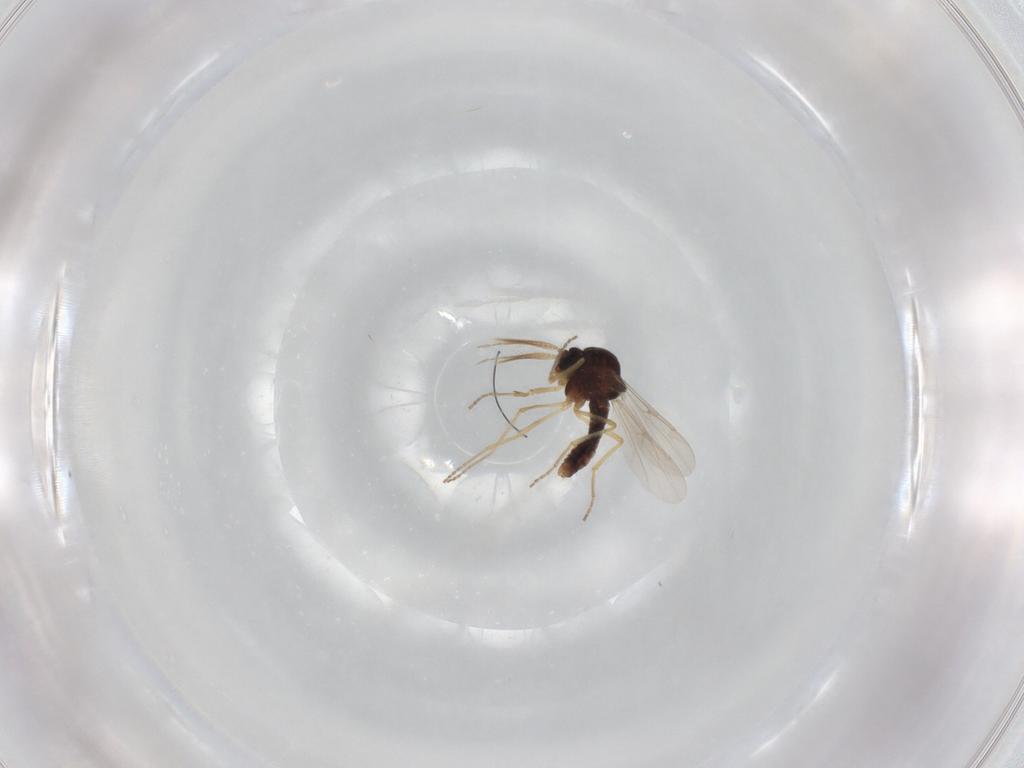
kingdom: Animalia
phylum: Arthropoda
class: Insecta
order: Diptera
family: Ceratopogonidae
